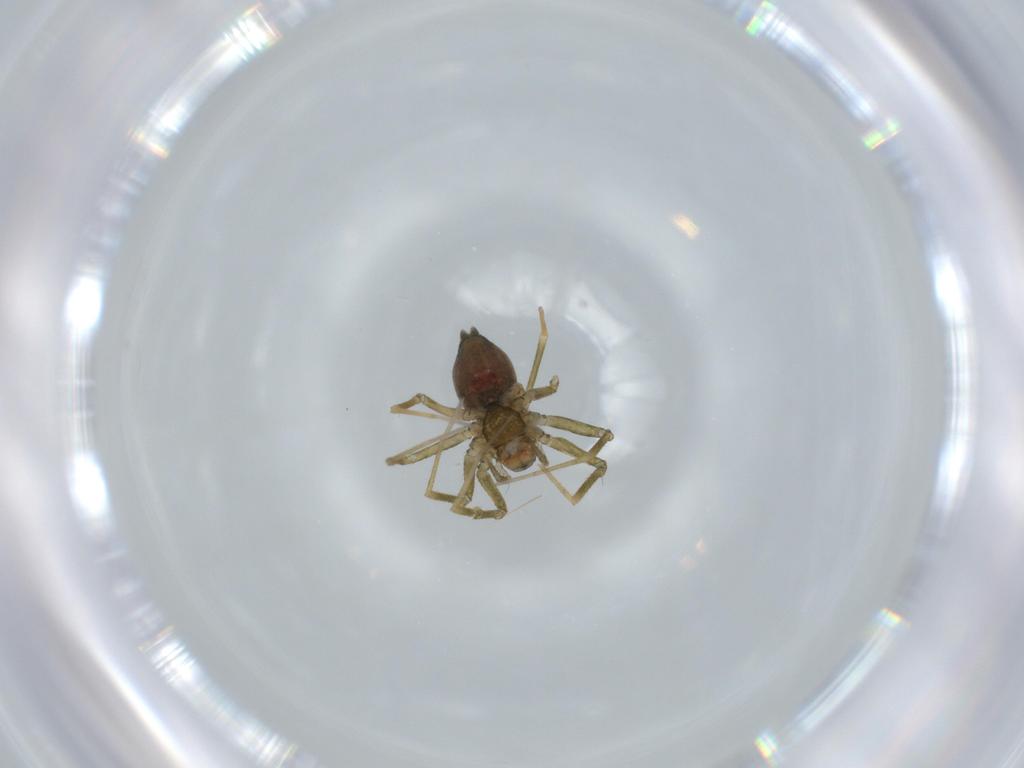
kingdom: Animalia
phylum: Arthropoda
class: Arachnida
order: Araneae
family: Linyphiidae
